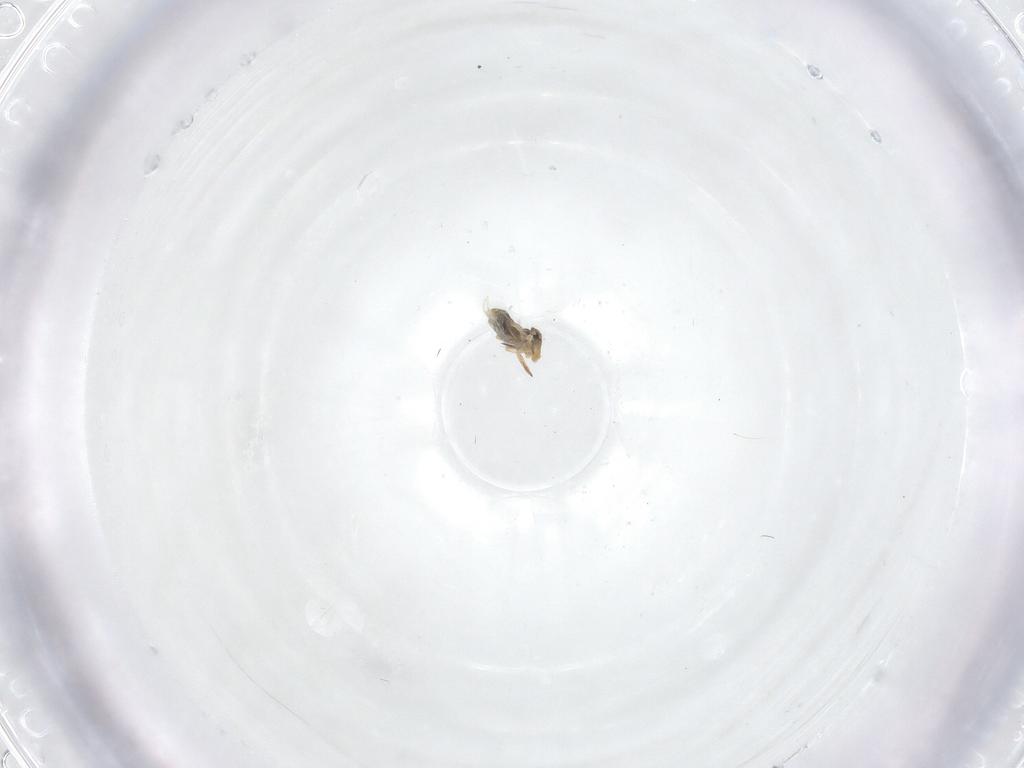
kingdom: Animalia
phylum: Arthropoda
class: Collembola
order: Symphypleona
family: Katiannidae
